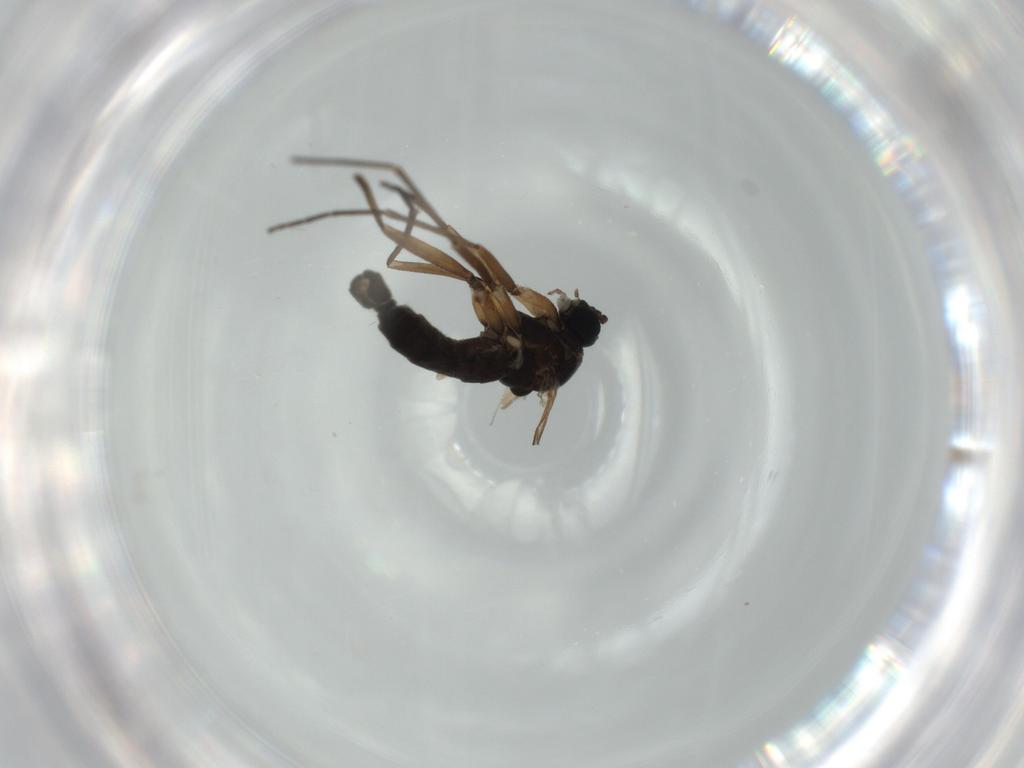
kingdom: Animalia
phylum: Arthropoda
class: Insecta
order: Diptera
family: Sciaridae
